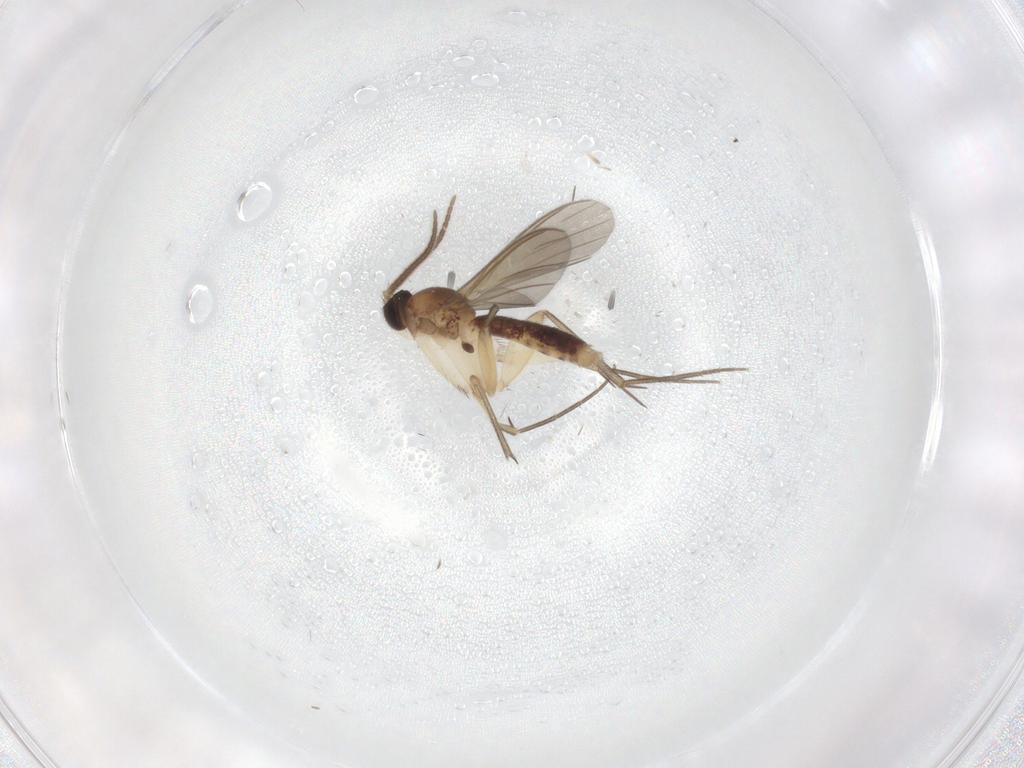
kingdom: Animalia
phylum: Arthropoda
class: Insecta
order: Diptera
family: Mycetophilidae
